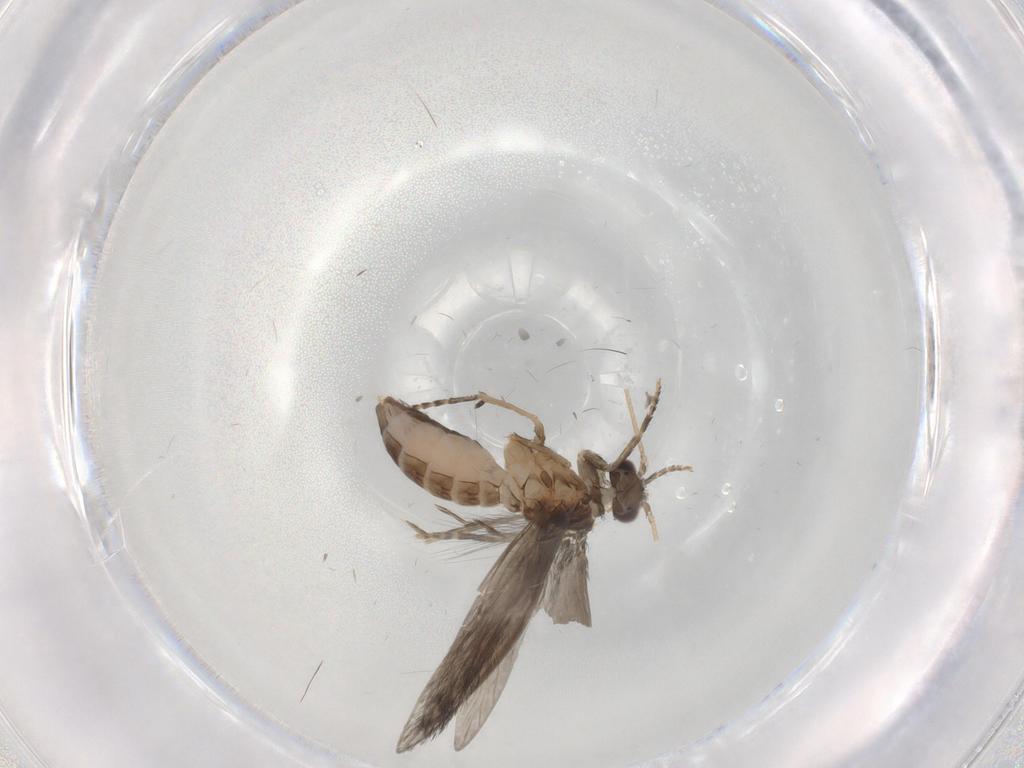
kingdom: Animalia
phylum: Arthropoda
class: Insecta
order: Trichoptera
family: Hydroptilidae
